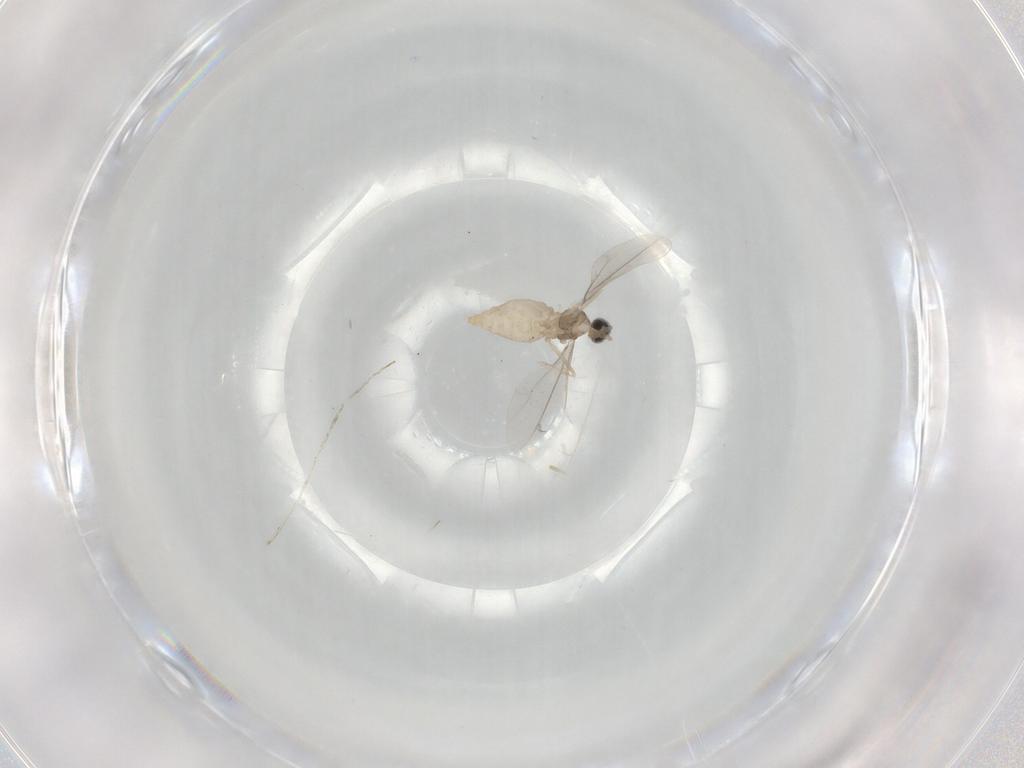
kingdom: Animalia
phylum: Arthropoda
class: Insecta
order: Diptera
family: Cecidomyiidae
